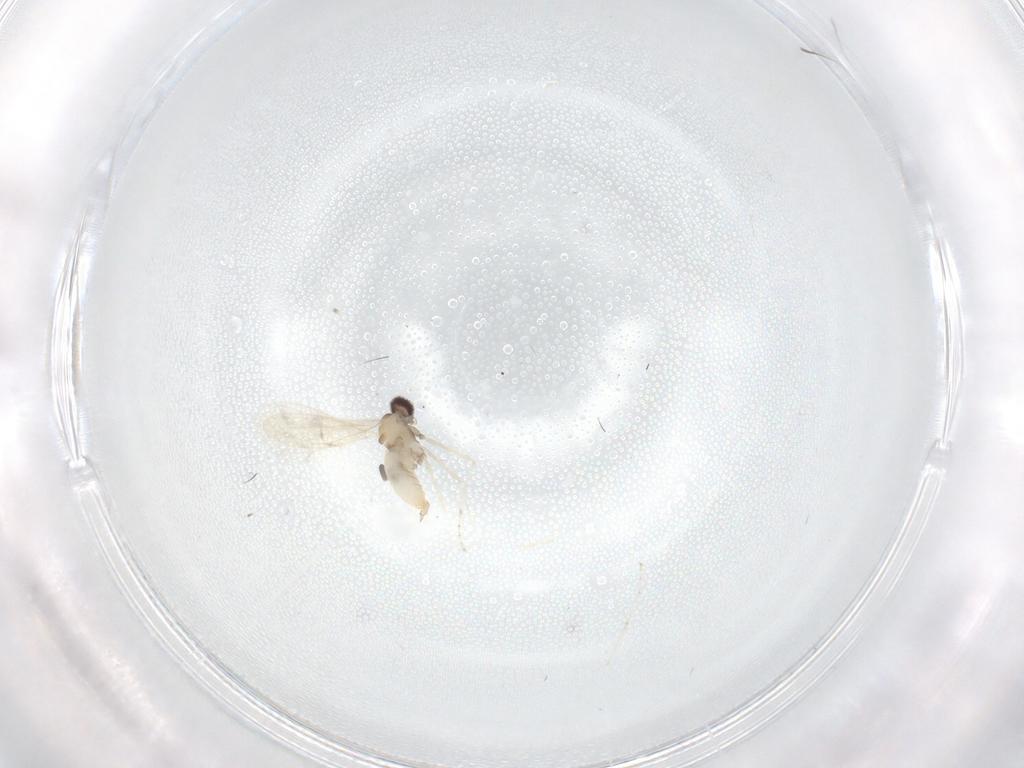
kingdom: Animalia
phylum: Arthropoda
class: Insecta
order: Diptera
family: Cecidomyiidae
